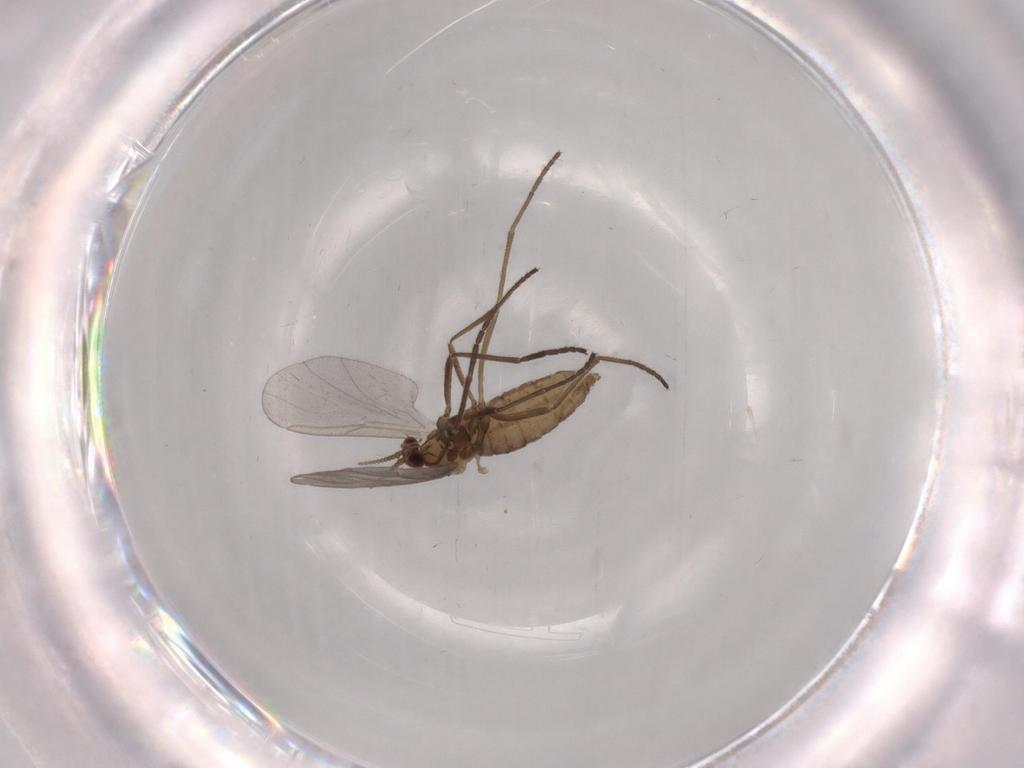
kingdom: Animalia
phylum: Arthropoda
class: Insecta
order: Diptera
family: Cecidomyiidae
